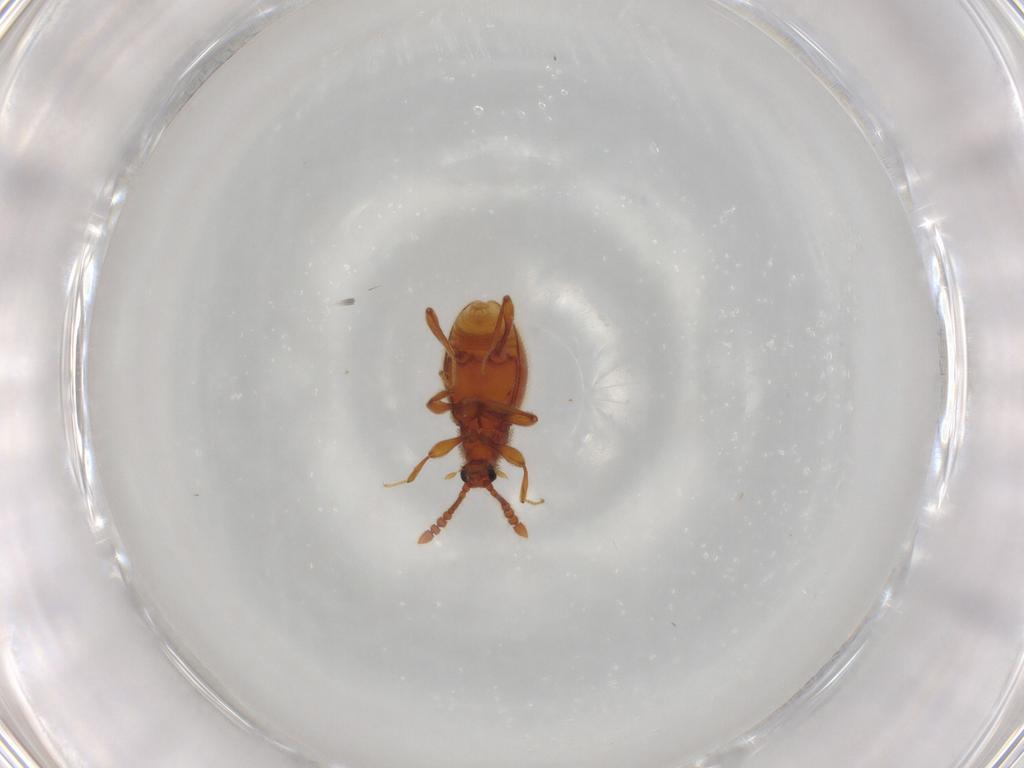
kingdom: Animalia
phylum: Arthropoda
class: Insecta
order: Coleoptera
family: Staphylinidae
